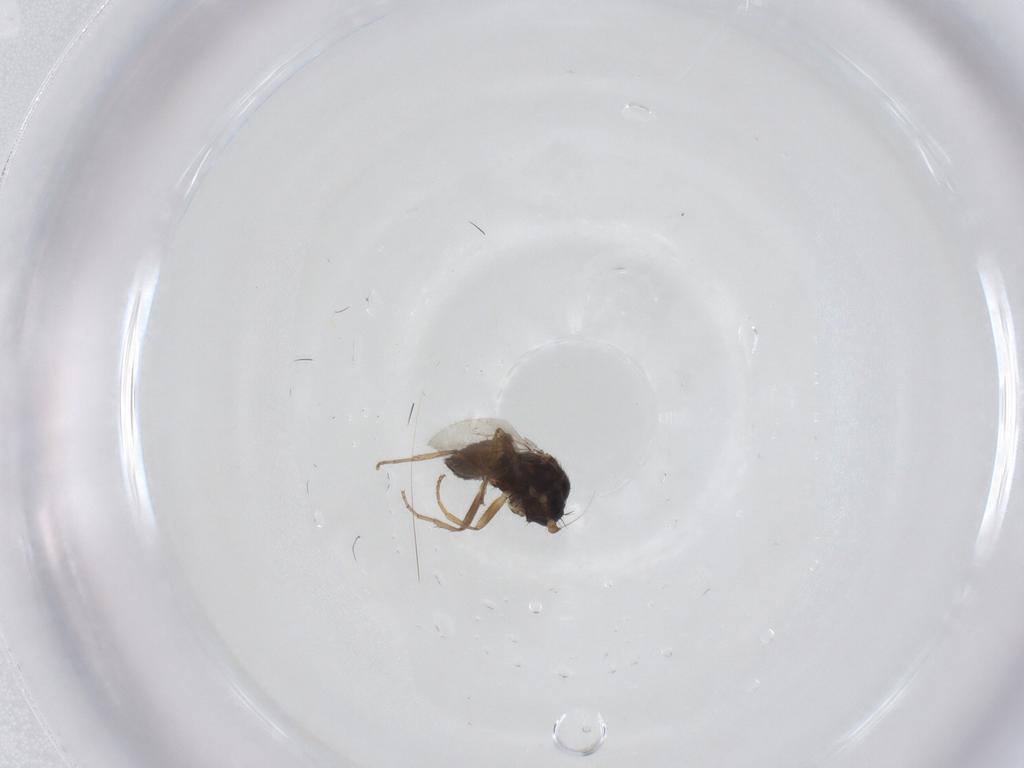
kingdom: Animalia
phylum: Arthropoda
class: Insecta
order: Diptera
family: Sphaeroceridae
